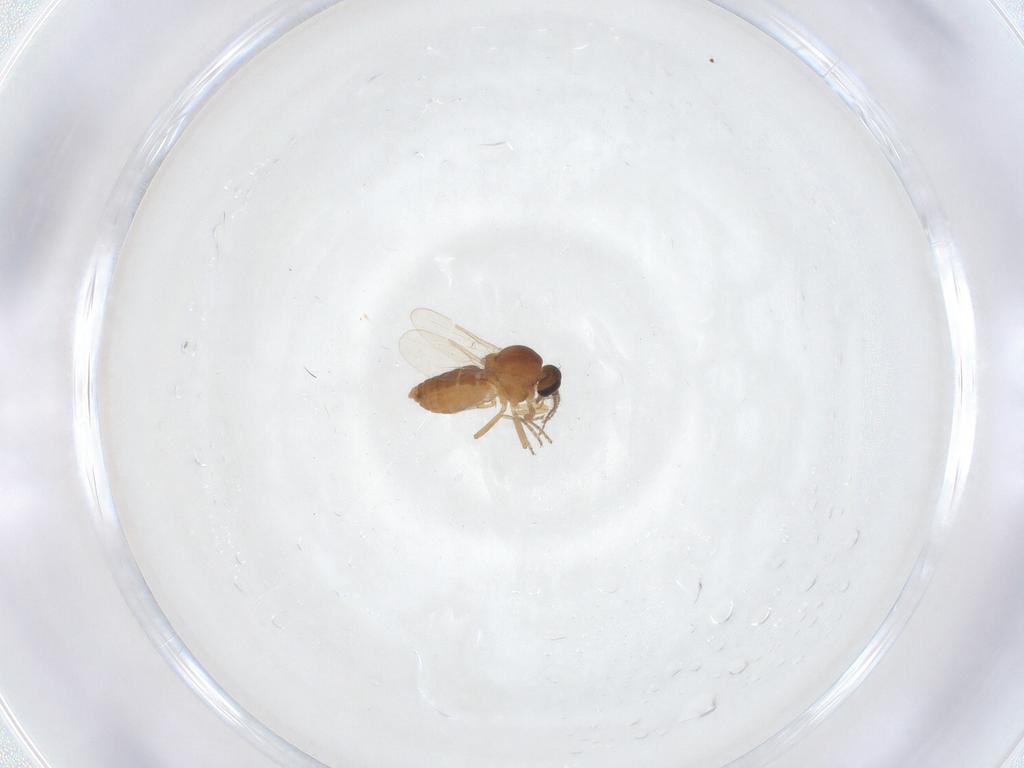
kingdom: Animalia
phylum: Arthropoda
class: Insecta
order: Diptera
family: Ceratopogonidae
